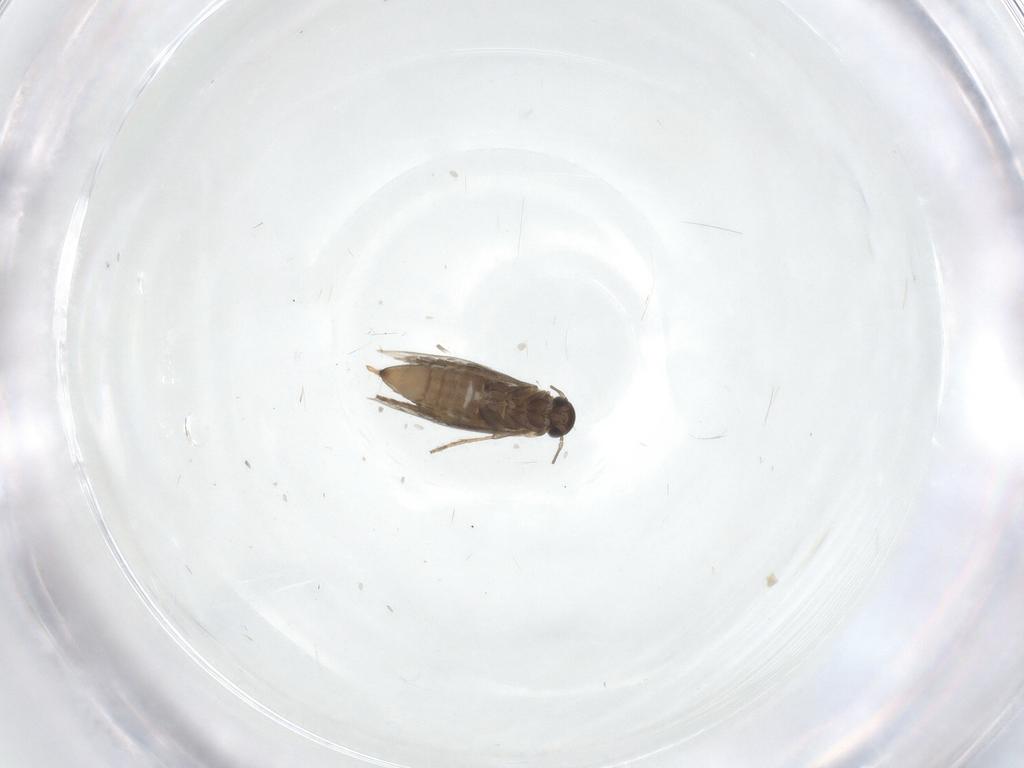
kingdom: Animalia
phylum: Arthropoda
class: Insecta
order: Lepidoptera
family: Heliozelidae
